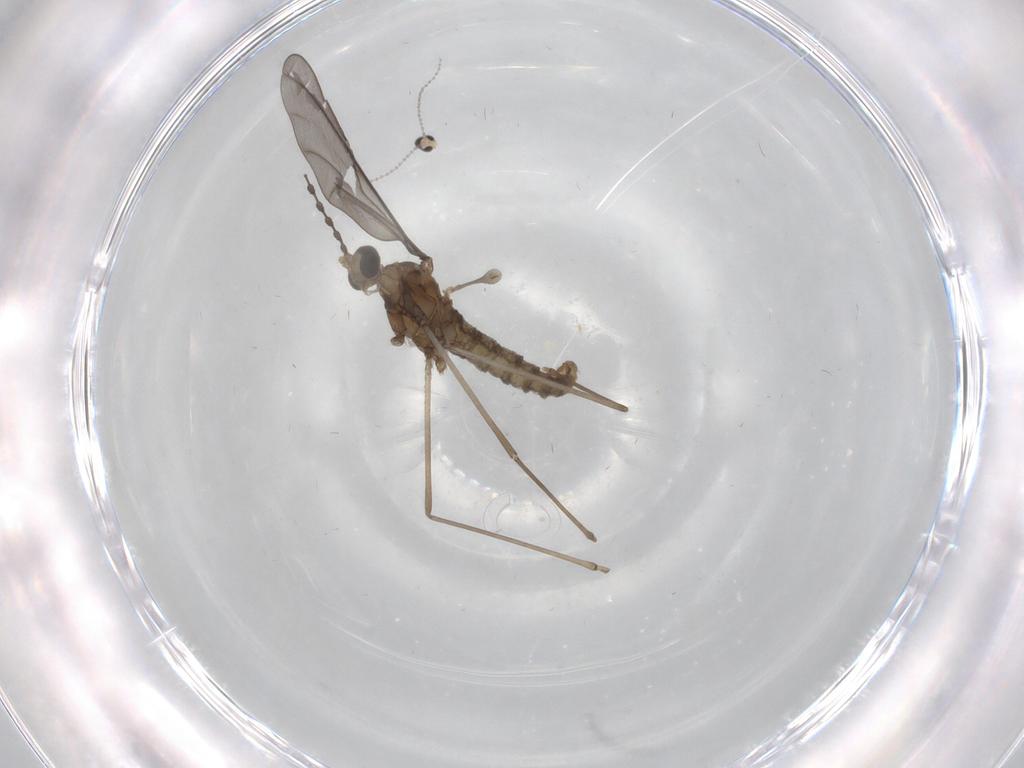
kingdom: Animalia
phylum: Arthropoda
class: Insecta
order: Diptera
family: Cecidomyiidae
